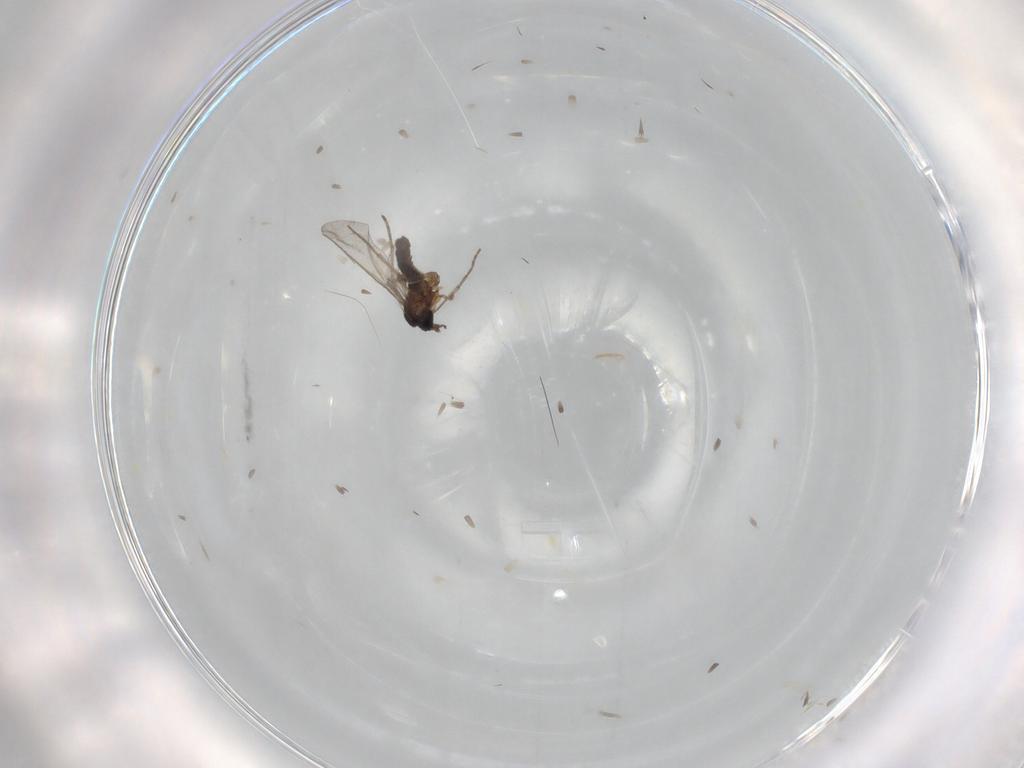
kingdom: Animalia
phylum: Arthropoda
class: Insecta
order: Diptera
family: Sciaridae
